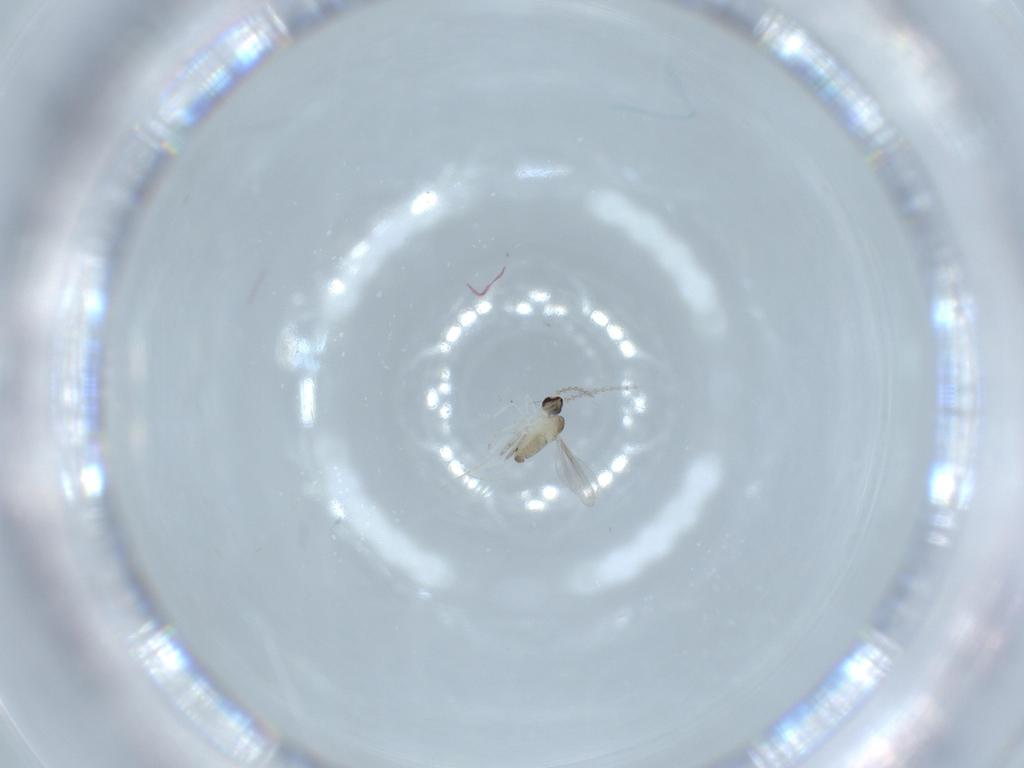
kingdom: Animalia
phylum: Arthropoda
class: Insecta
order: Diptera
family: Cecidomyiidae
